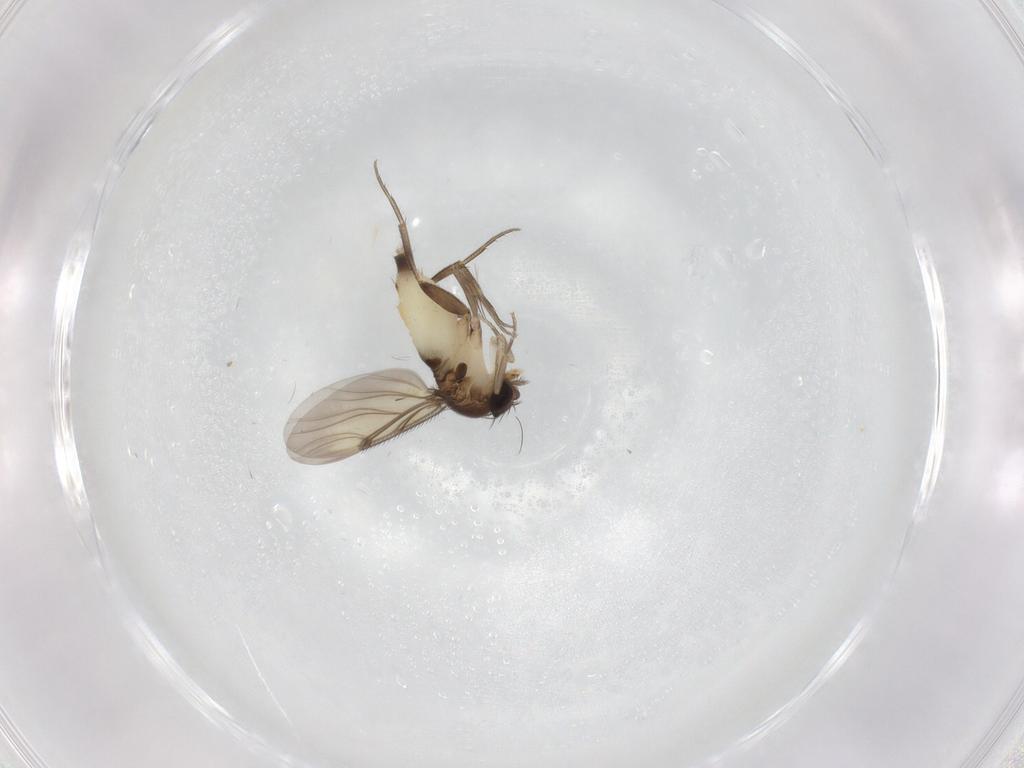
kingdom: Animalia
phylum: Arthropoda
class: Insecta
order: Diptera
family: Phoridae
